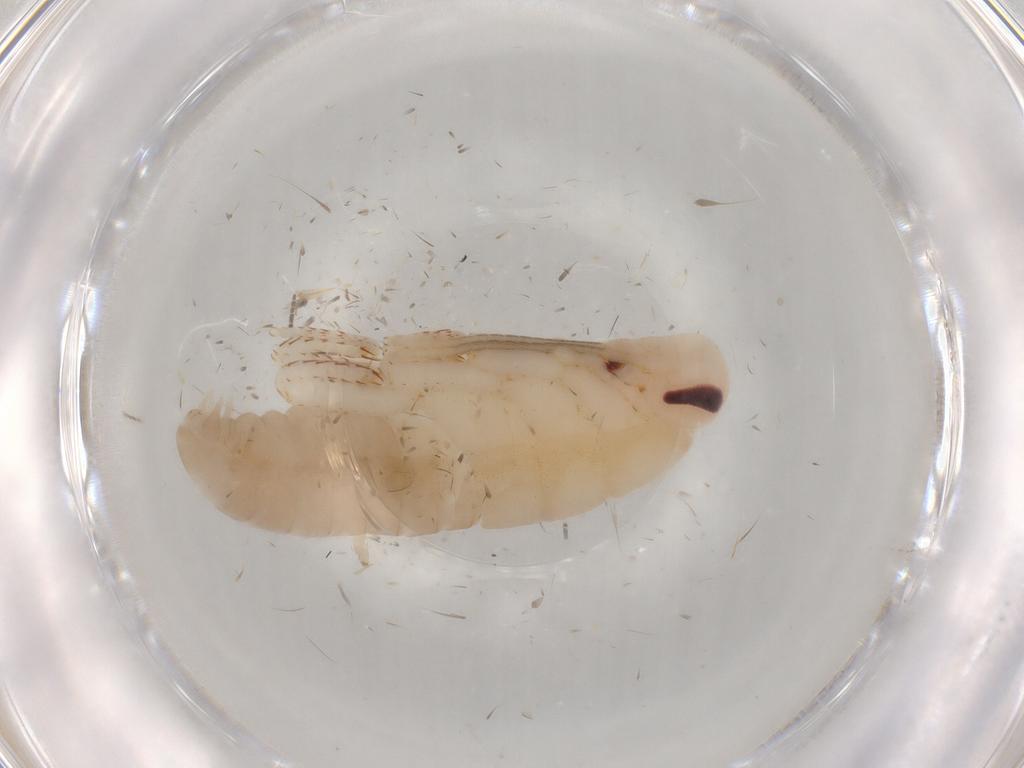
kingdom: Animalia
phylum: Arthropoda
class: Insecta
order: Blattodea
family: Blaberidae
